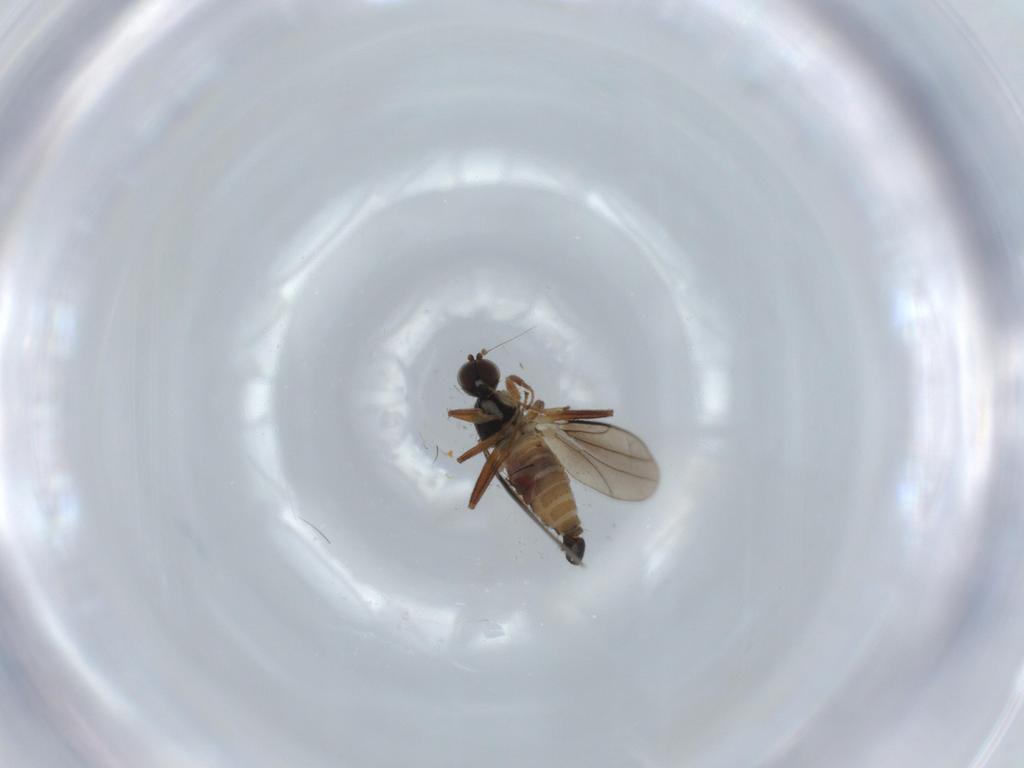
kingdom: Animalia
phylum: Arthropoda
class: Insecta
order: Diptera
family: Hybotidae
